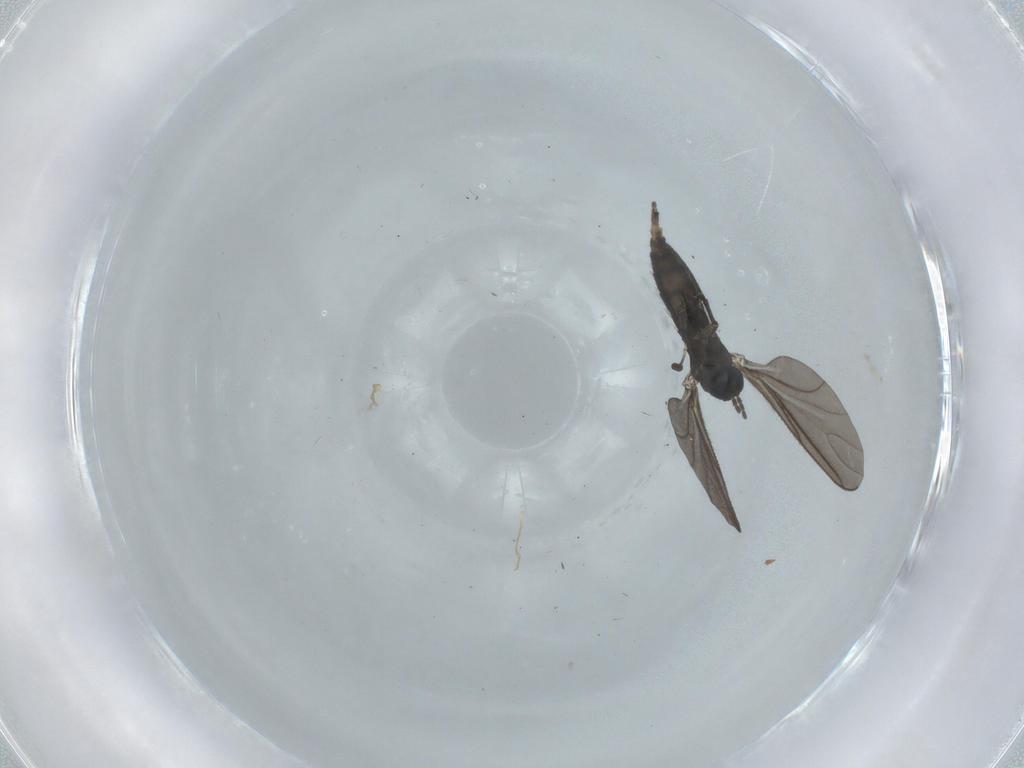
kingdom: Animalia
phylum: Arthropoda
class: Insecta
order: Diptera
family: Sciaridae
